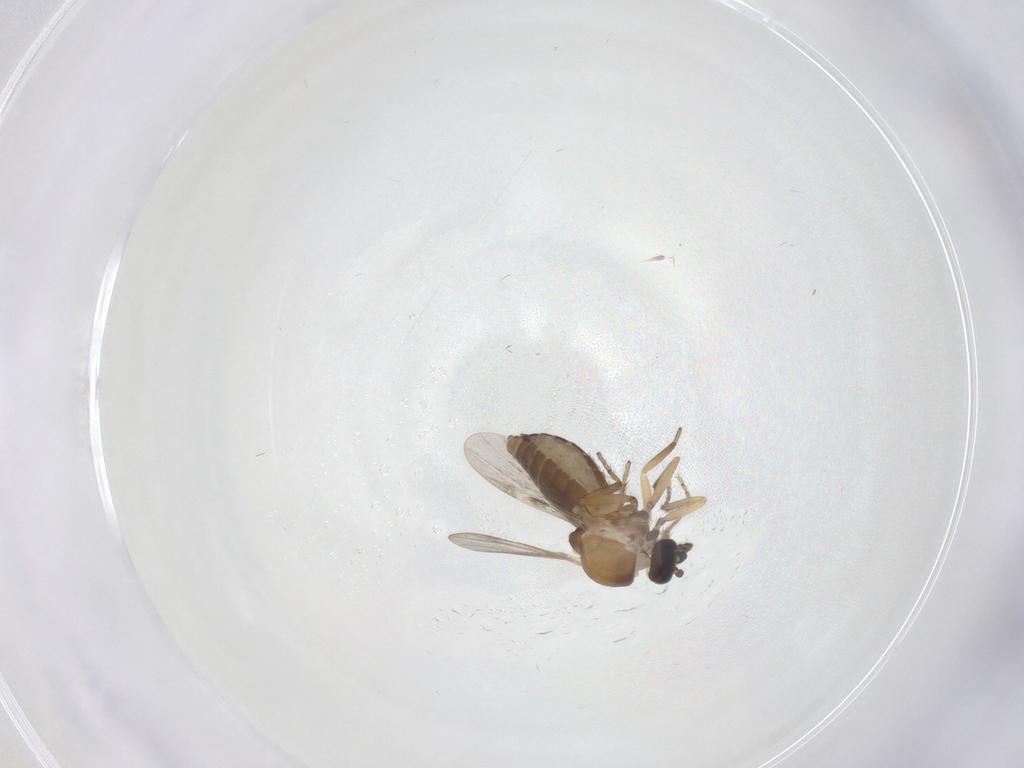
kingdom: Animalia
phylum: Arthropoda
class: Insecta
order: Diptera
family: Ceratopogonidae
